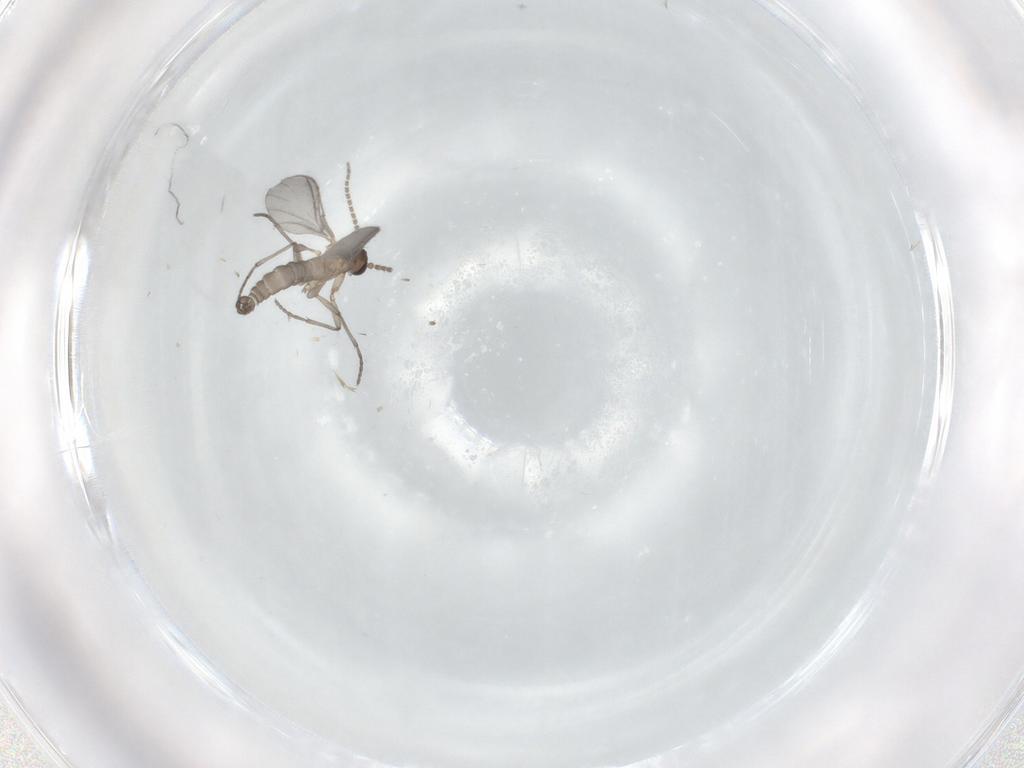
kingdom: Animalia
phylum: Arthropoda
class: Insecta
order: Diptera
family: Sciaridae
